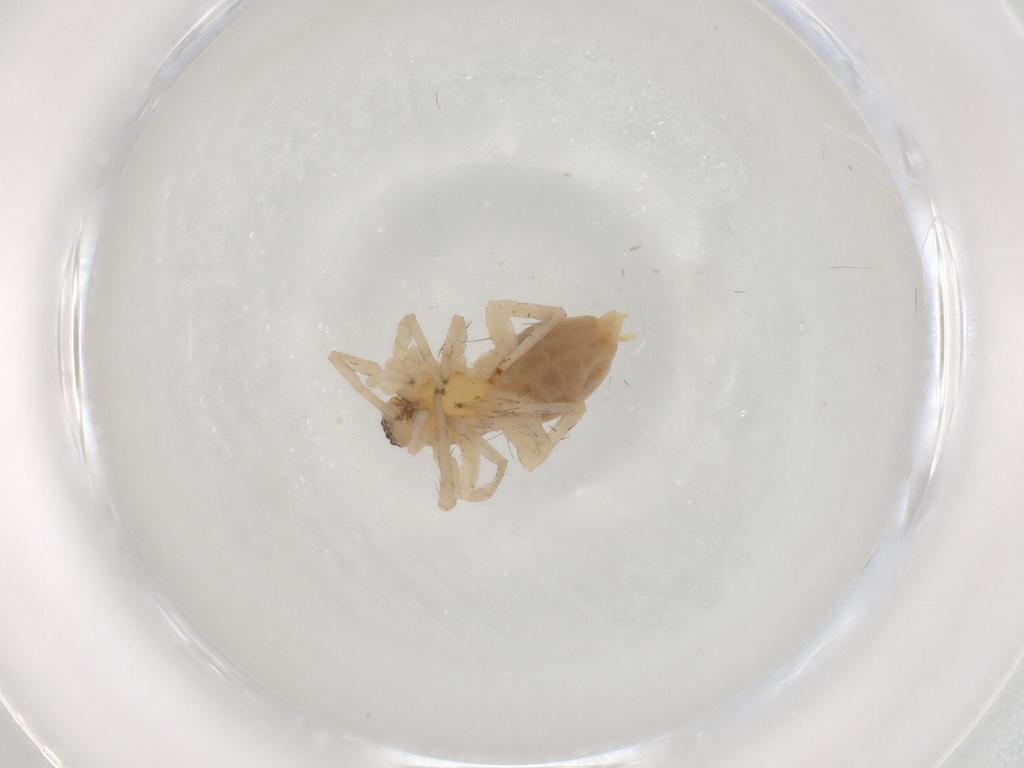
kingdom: Animalia
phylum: Arthropoda
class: Arachnida
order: Araneae
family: Anyphaenidae
